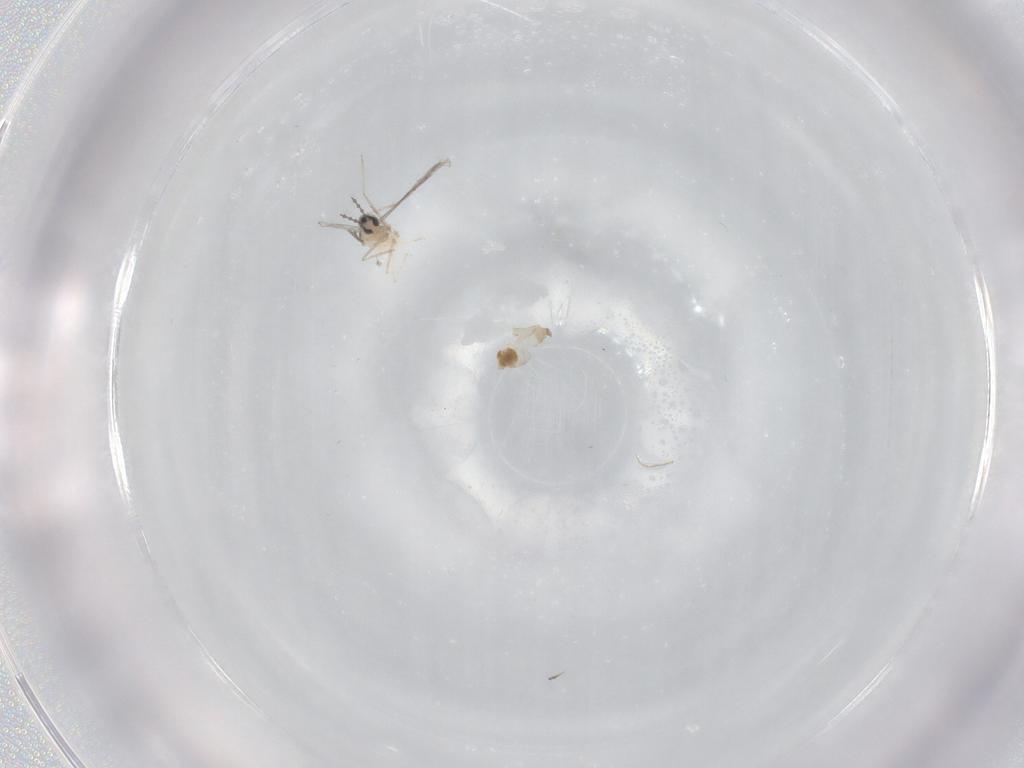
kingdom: Animalia
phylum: Arthropoda
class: Insecta
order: Diptera
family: Cecidomyiidae
